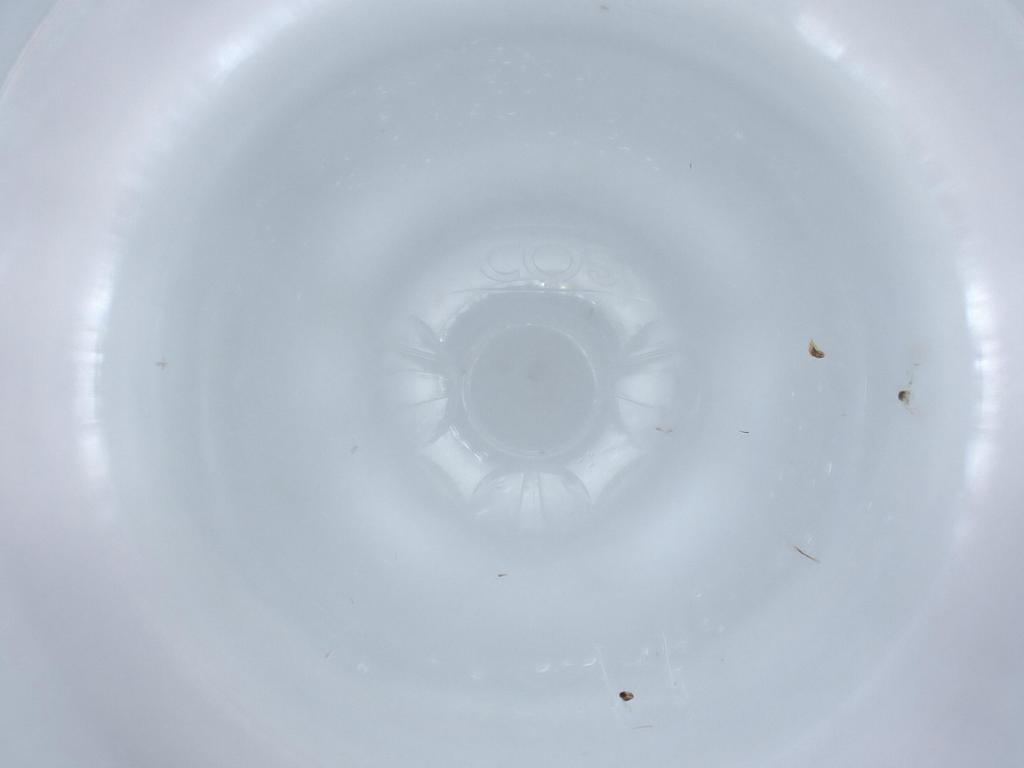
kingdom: Animalia
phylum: Arthropoda
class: Insecta
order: Hymenoptera
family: Mymaridae
